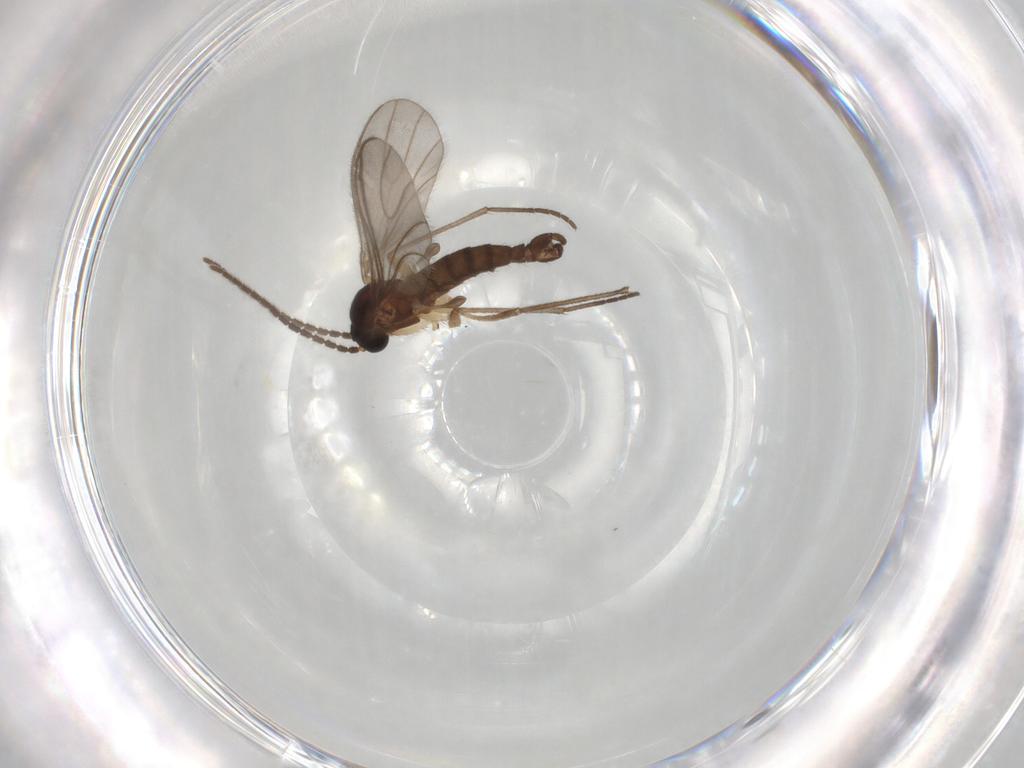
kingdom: Animalia
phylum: Arthropoda
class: Insecta
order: Diptera
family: Sciaridae
